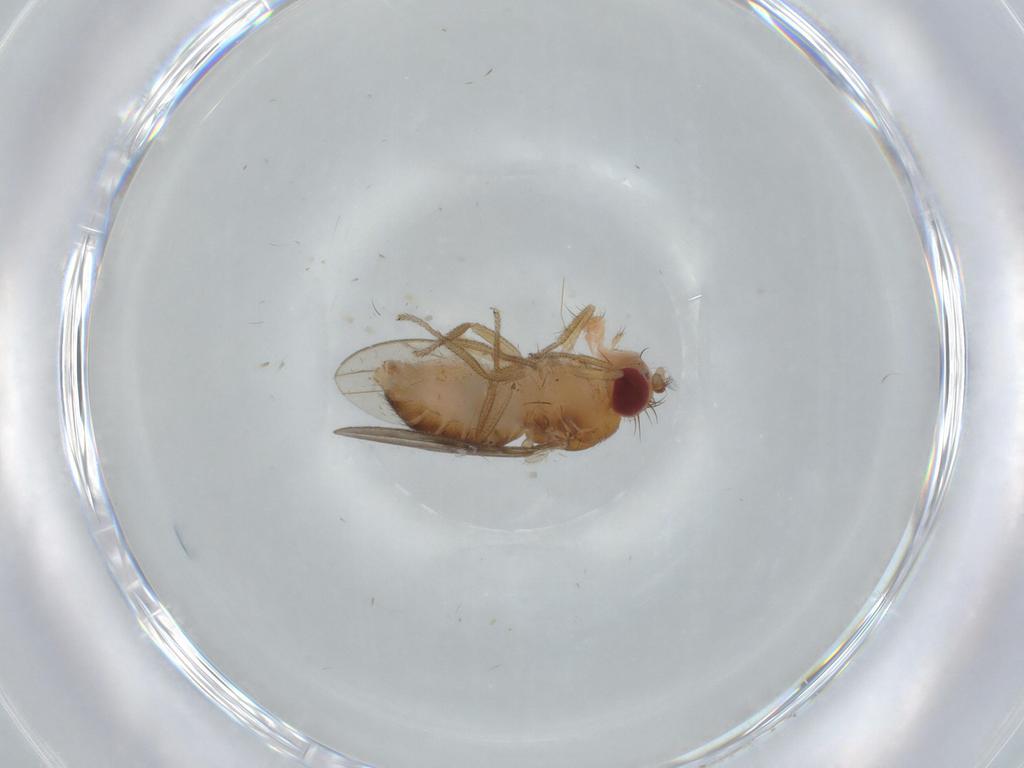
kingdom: Animalia
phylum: Arthropoda
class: Insecta
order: Diptera
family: Drosophilidae
